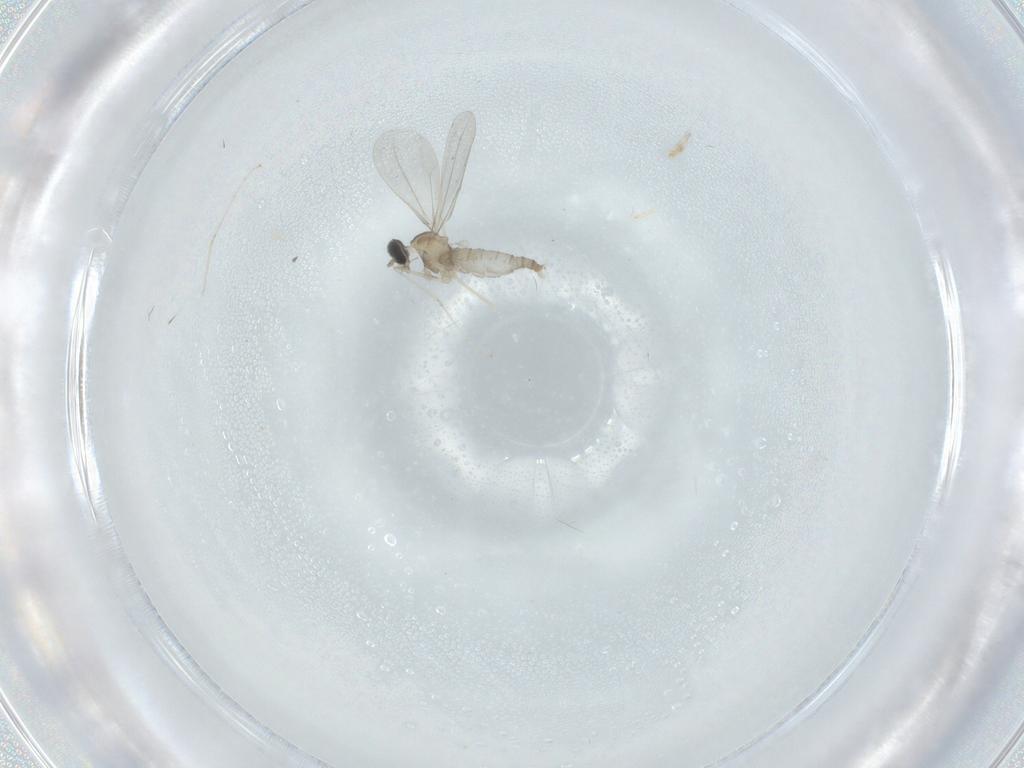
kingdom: Animalia
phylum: Arthropoda
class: Insecta
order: Diptera
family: Cecidomyiidae
